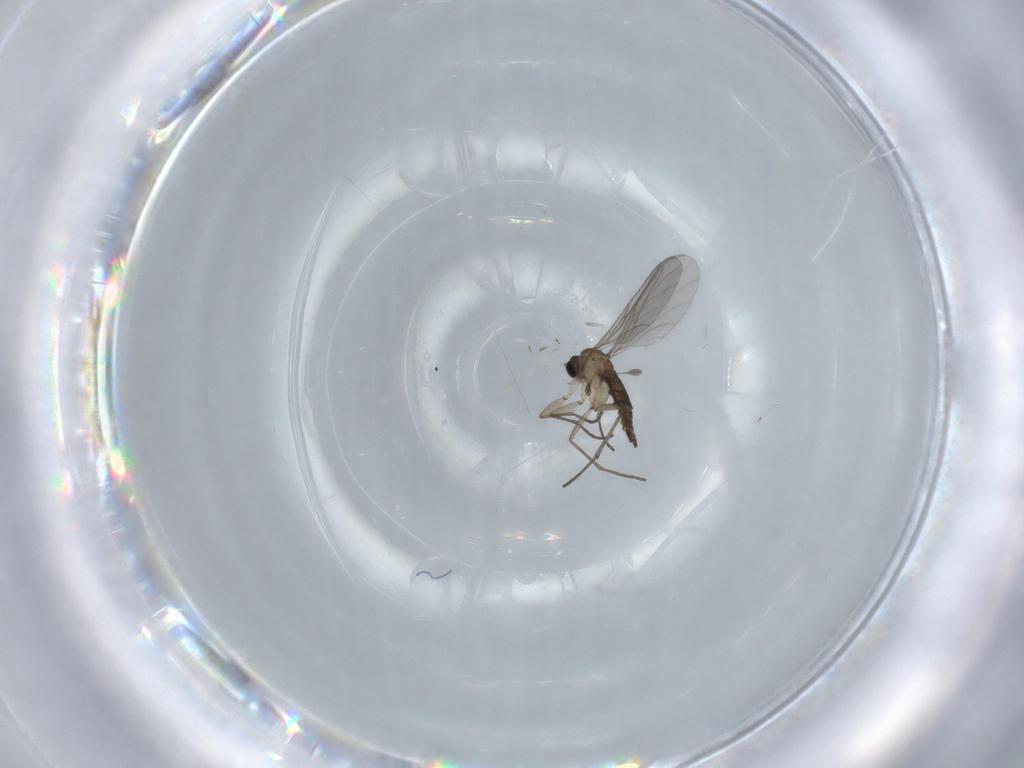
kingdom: Animalia
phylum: Arthropoda
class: Insecta
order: Diptera
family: Sciaridae
